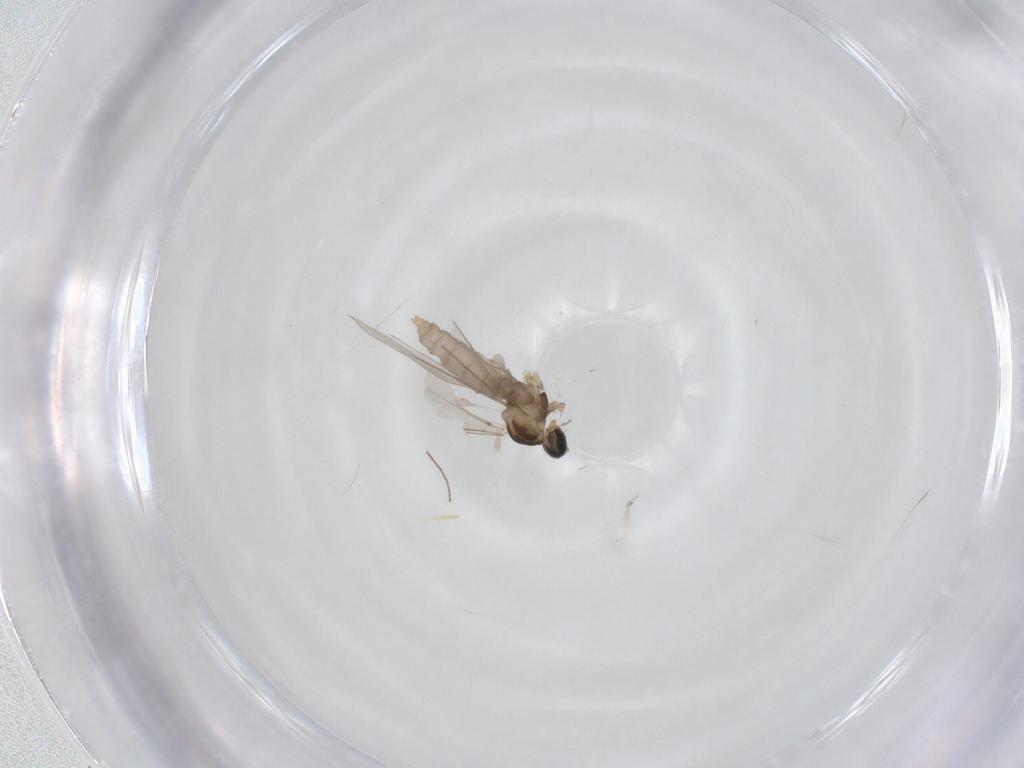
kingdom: Animalia
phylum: Arthropoda
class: Insecta
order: Diptera
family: Cecidomyiidae
